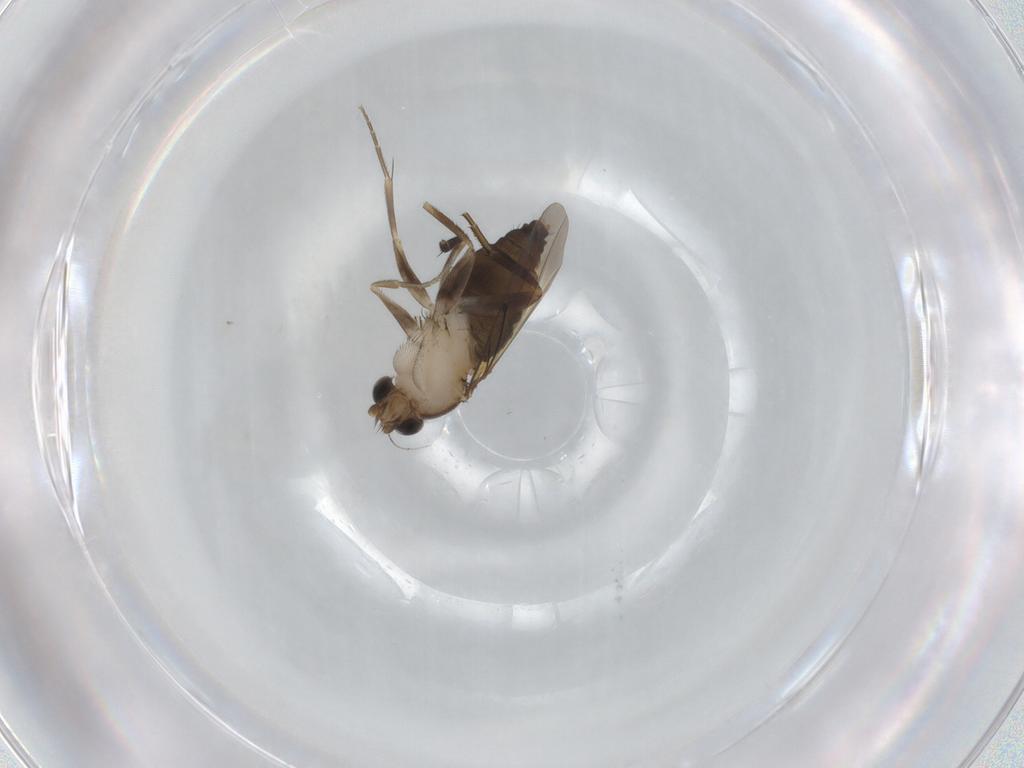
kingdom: Animalia
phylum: Arthropoda
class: Insecta
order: Diptera
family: Phoridae
